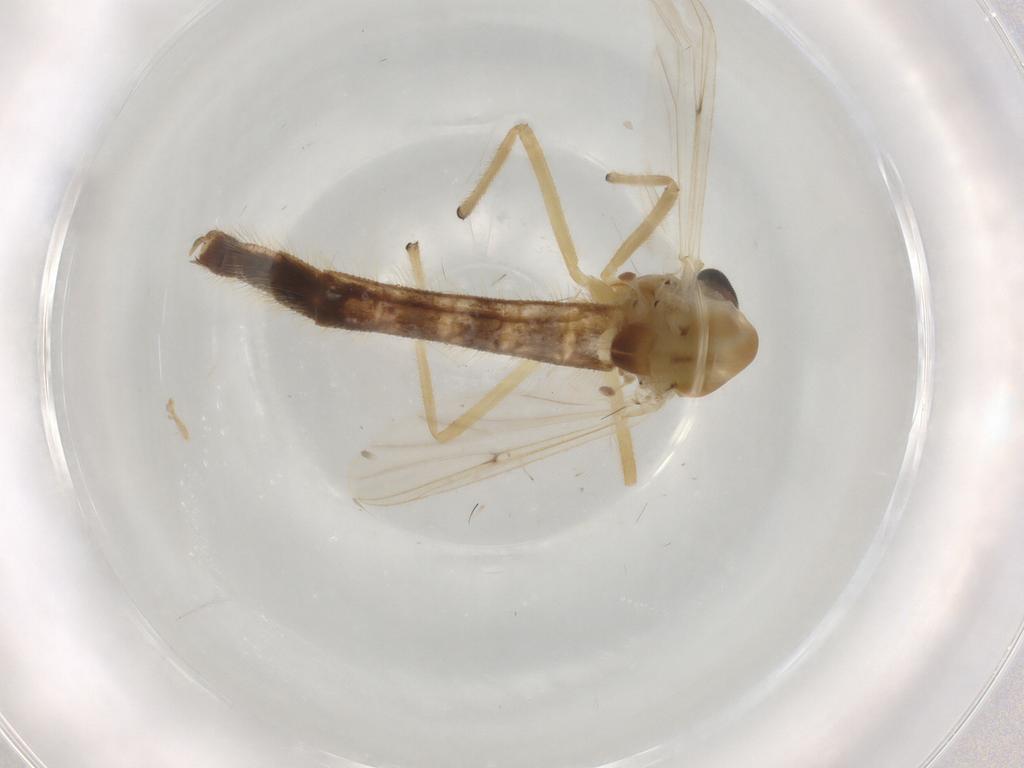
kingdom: Animalia
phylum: Arthropoda
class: Insecta
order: Diptera
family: Chironomidae
